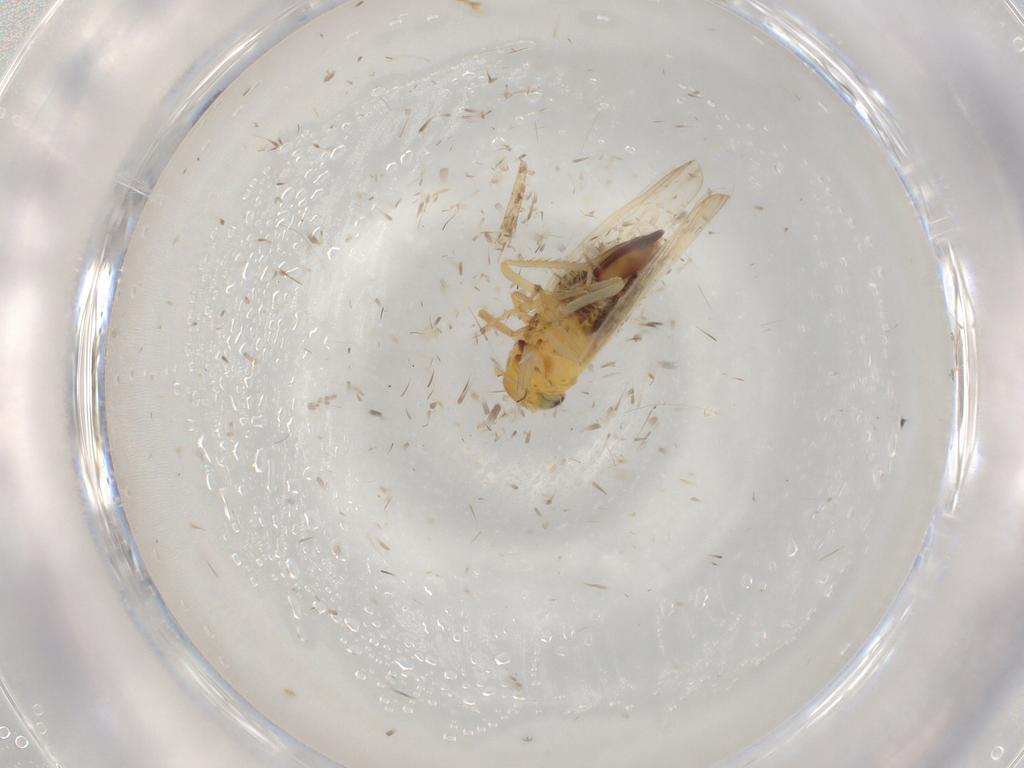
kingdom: Animalia
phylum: Arthropoda
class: Insecta
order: Hemiptera
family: Cicadellidae
